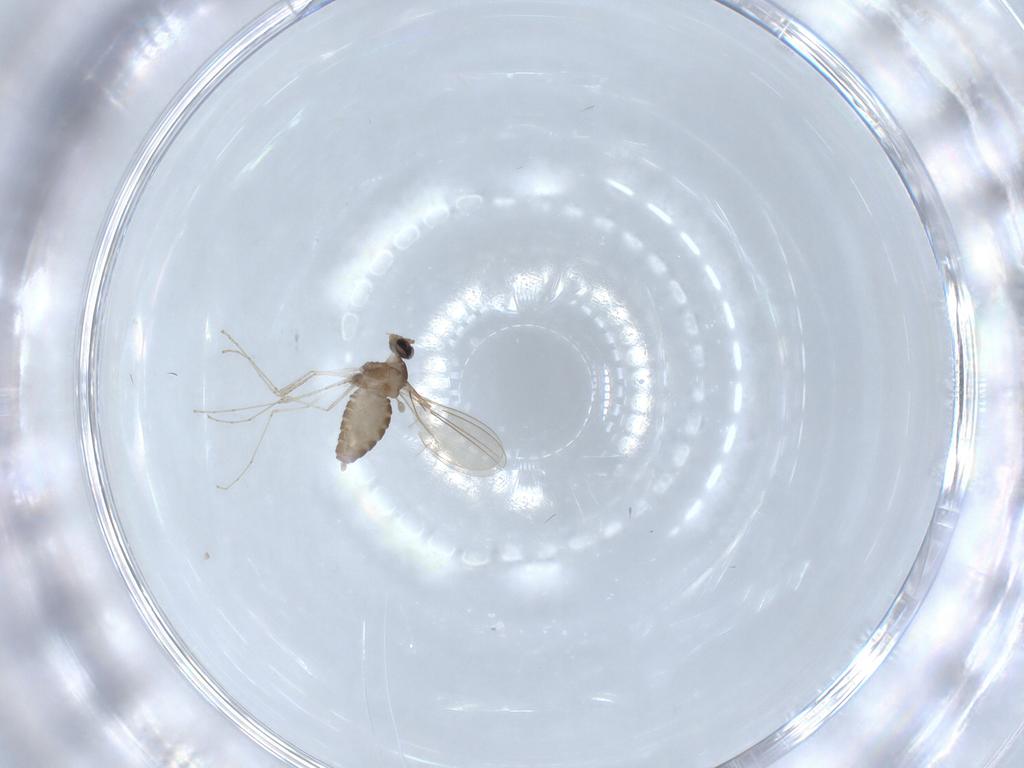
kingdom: Animalia
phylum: Arthropoda
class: Insecta
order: Diptera
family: Cecidomyiidae
